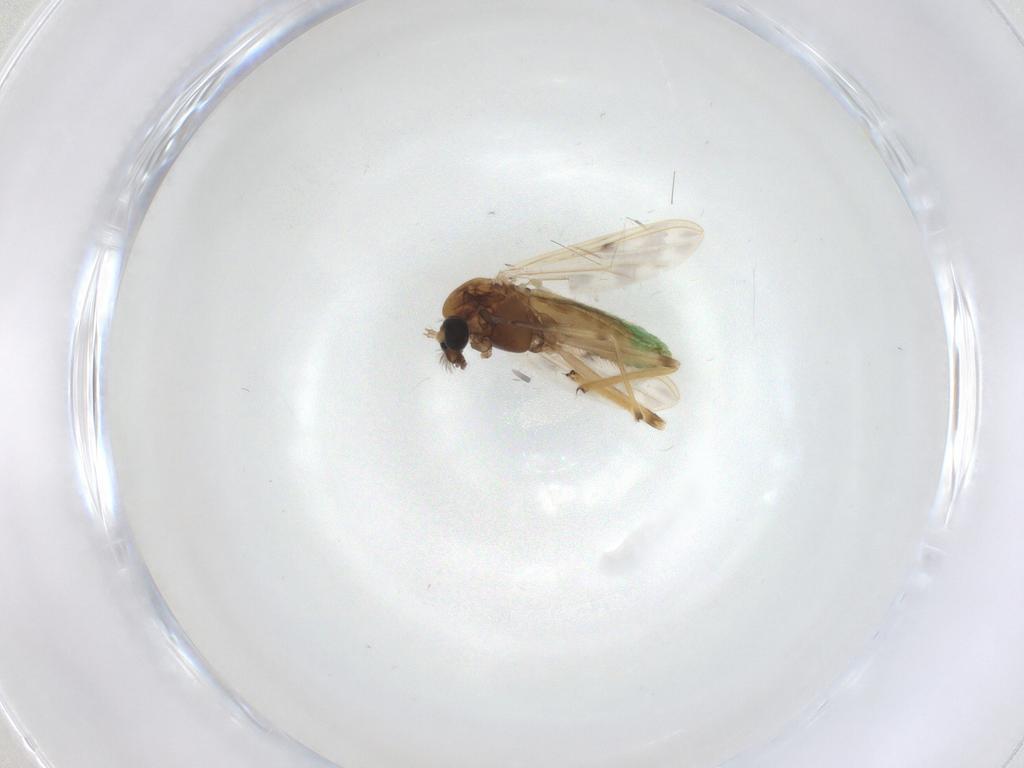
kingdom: Animalia
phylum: Arthropoda
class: Insecta
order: Diptera
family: Chironomidae
